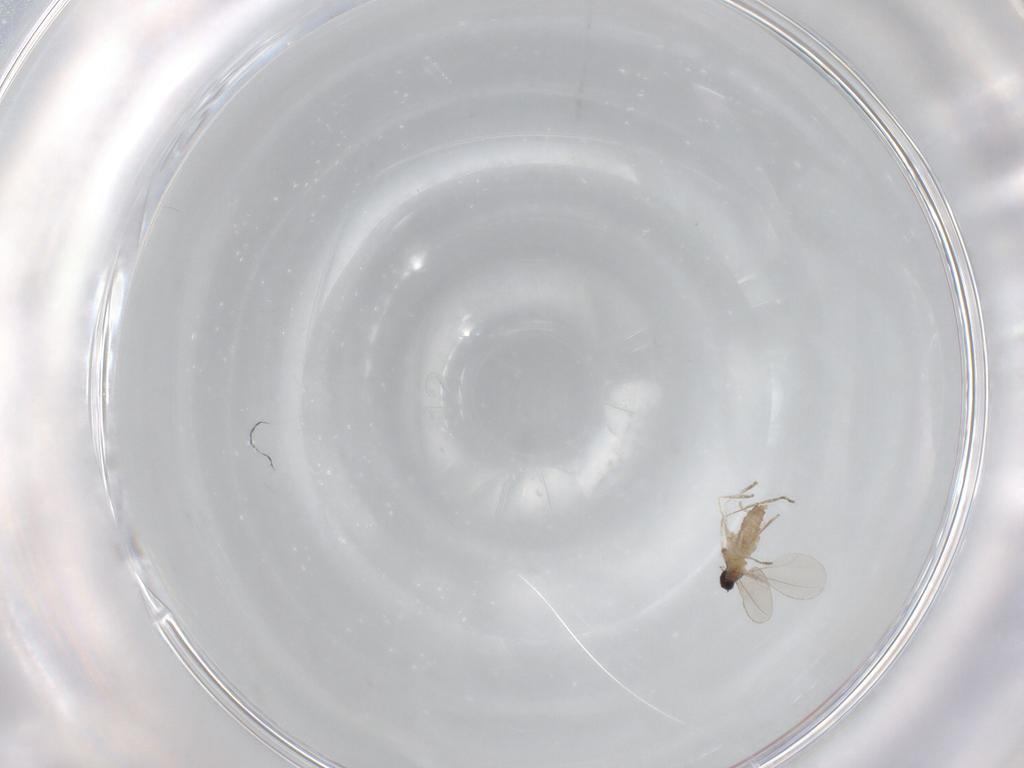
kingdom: Animalia
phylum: Arthropoda
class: Insecta
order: Diptera
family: Cecidomyiidae
